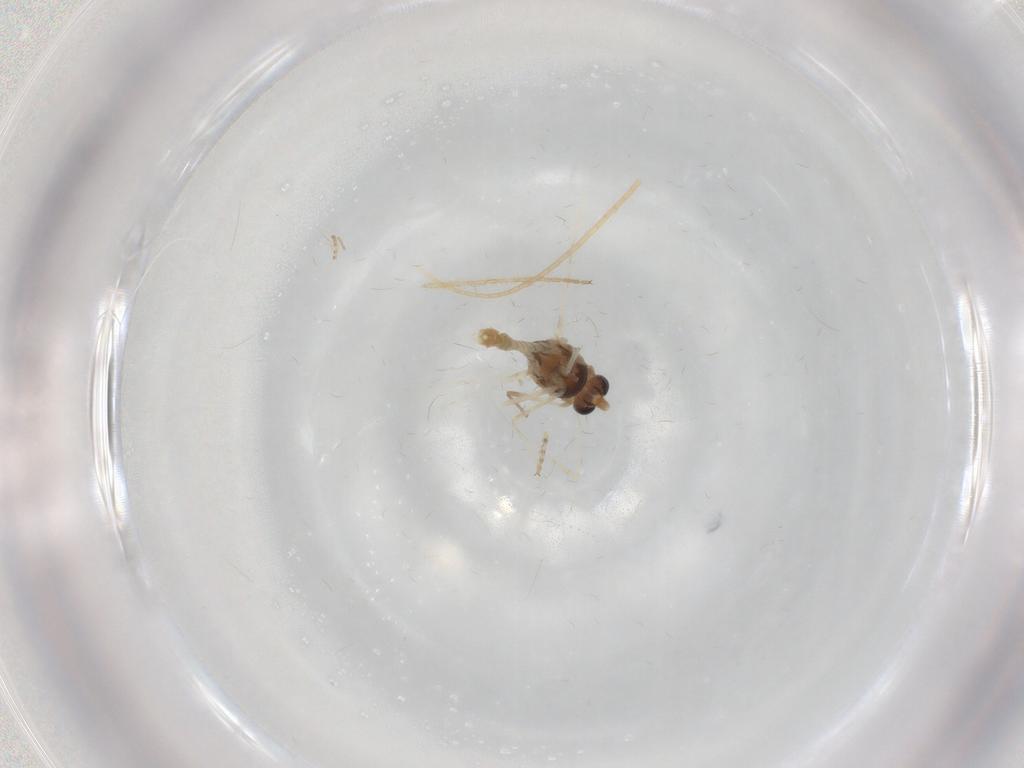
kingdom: Animalia
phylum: Arthropoda
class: Insecta
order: Diptera
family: Chironomidae
